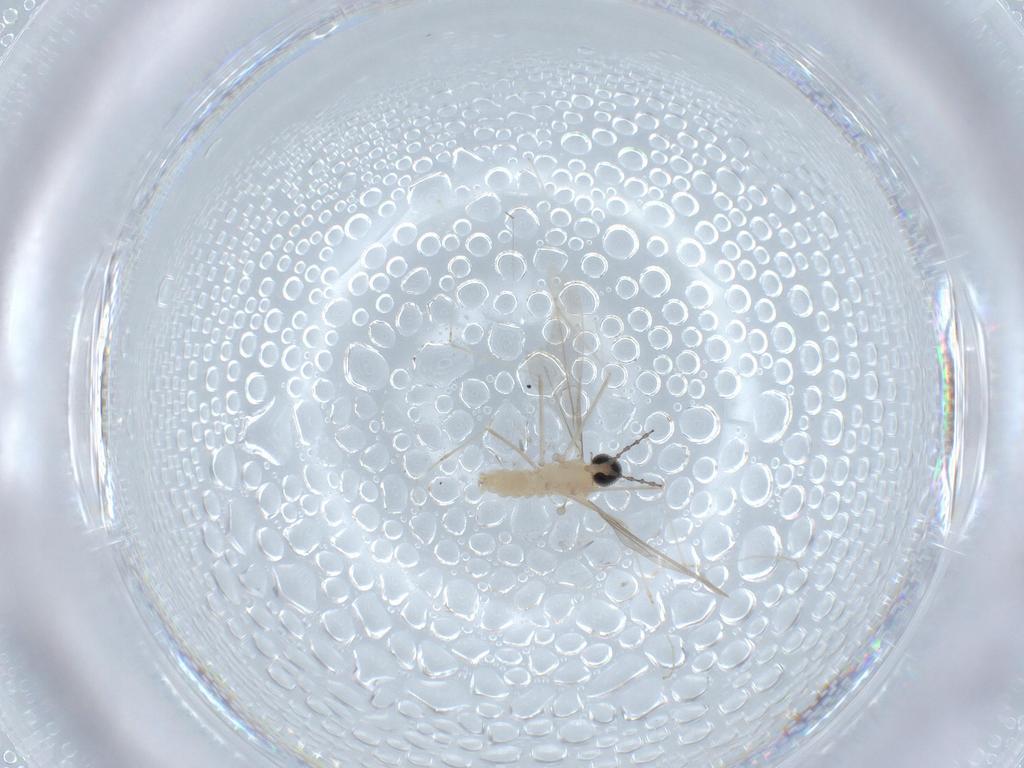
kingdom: Animalia
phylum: Arthropoda
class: Insecta
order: Diptera
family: Cecidomyiidae
